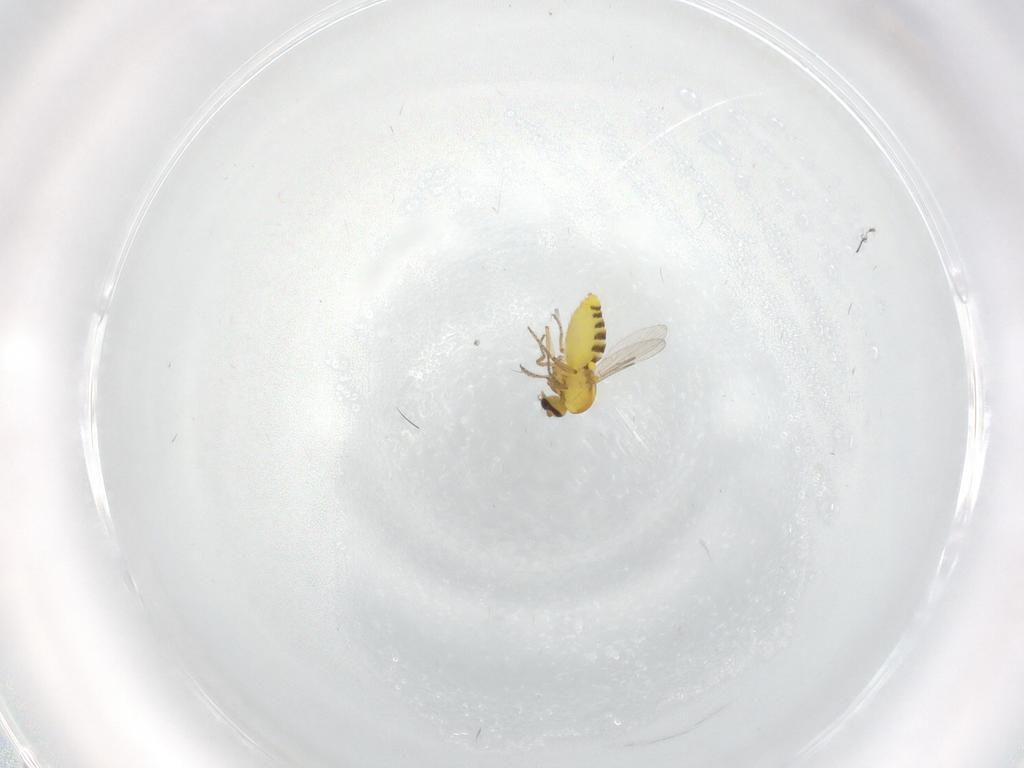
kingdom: Animalia
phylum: Arthropoda
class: Insecta
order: Diptera
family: Ceratopogonidae
